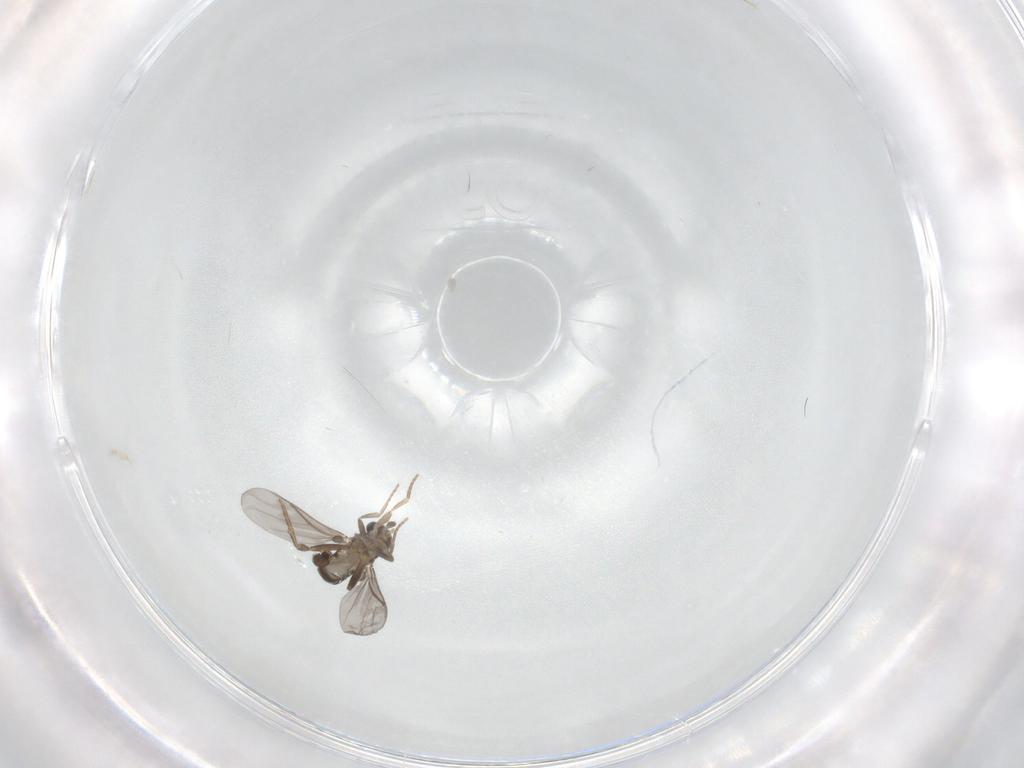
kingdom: Animalia
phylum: Arthropoda
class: Insecta
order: Diptera
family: Cecidomyiidae
